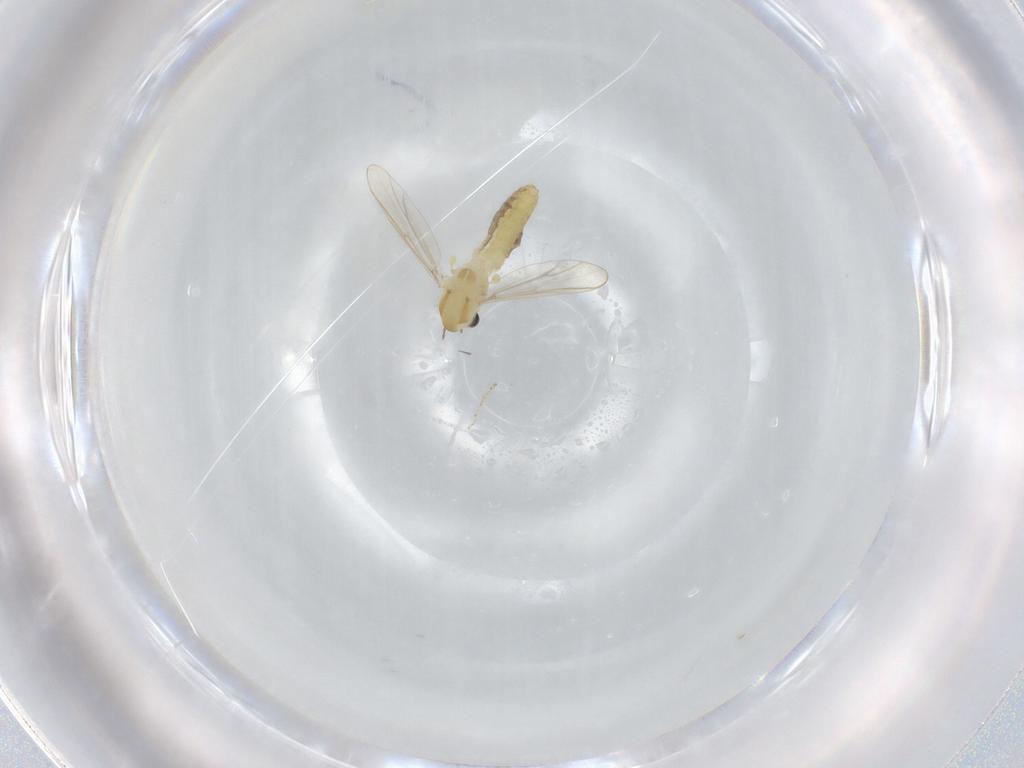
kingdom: Animalia
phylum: Arthropoda
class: Insecta
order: Diptera
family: Chironomidae
